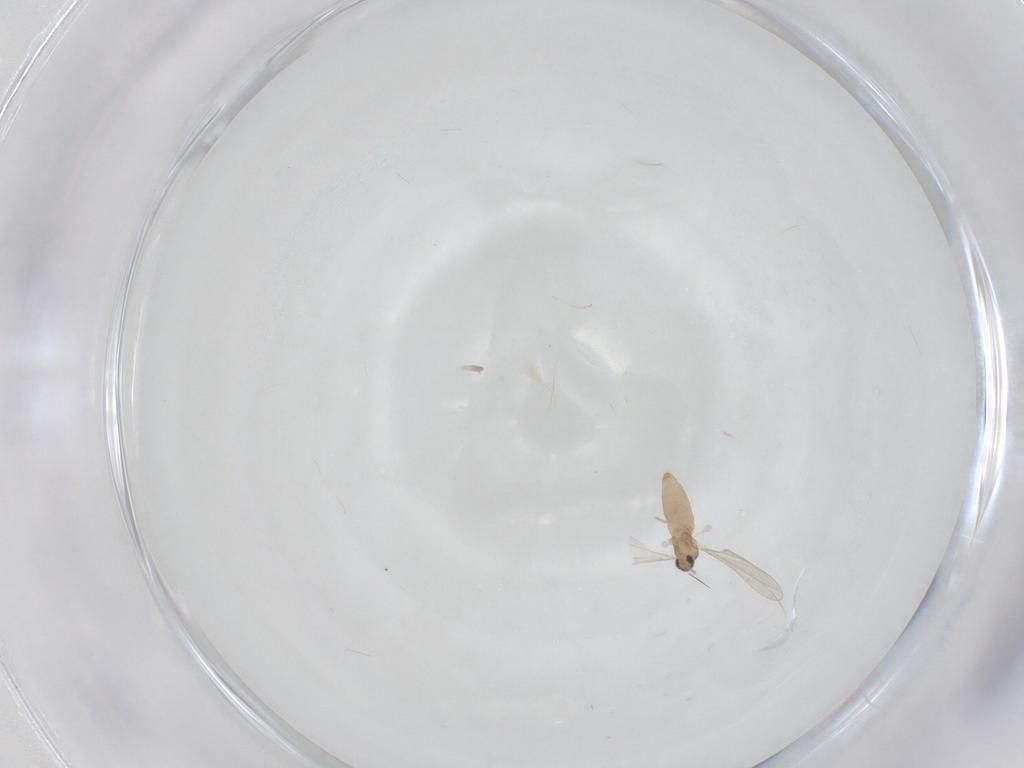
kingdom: Animalia
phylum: Arthropoda
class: Insecta
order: Diptera
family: Cecidomyiidae
